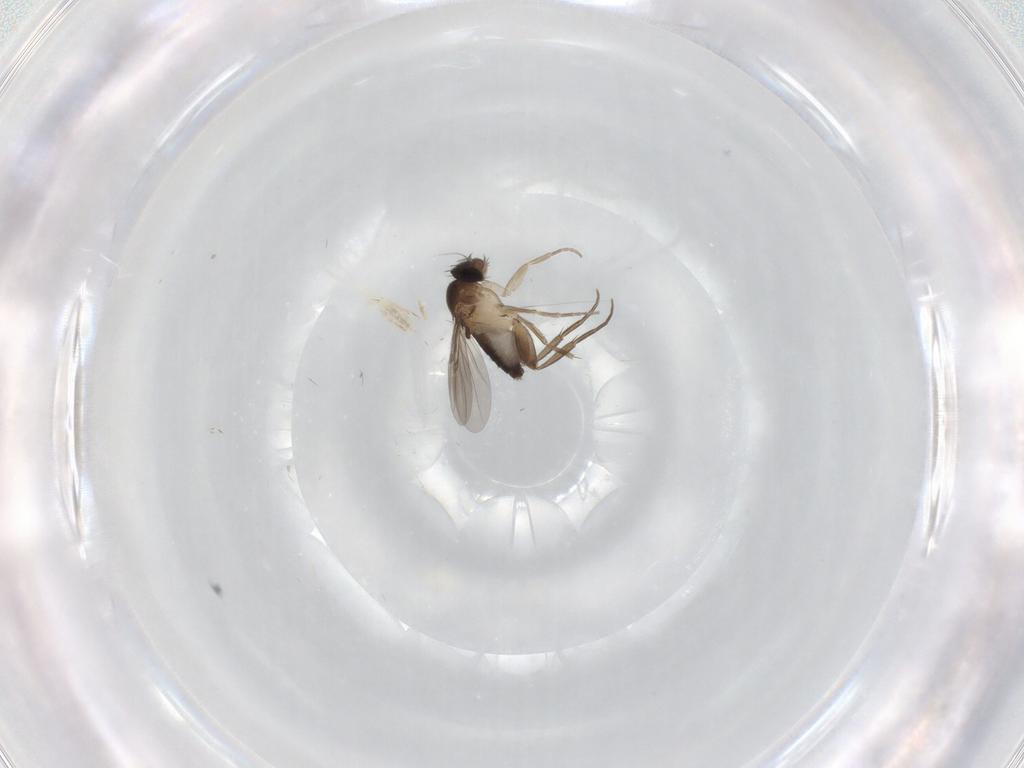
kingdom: Animalia
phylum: Arthropoda
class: Insecta
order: Diptera
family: Phoridae
